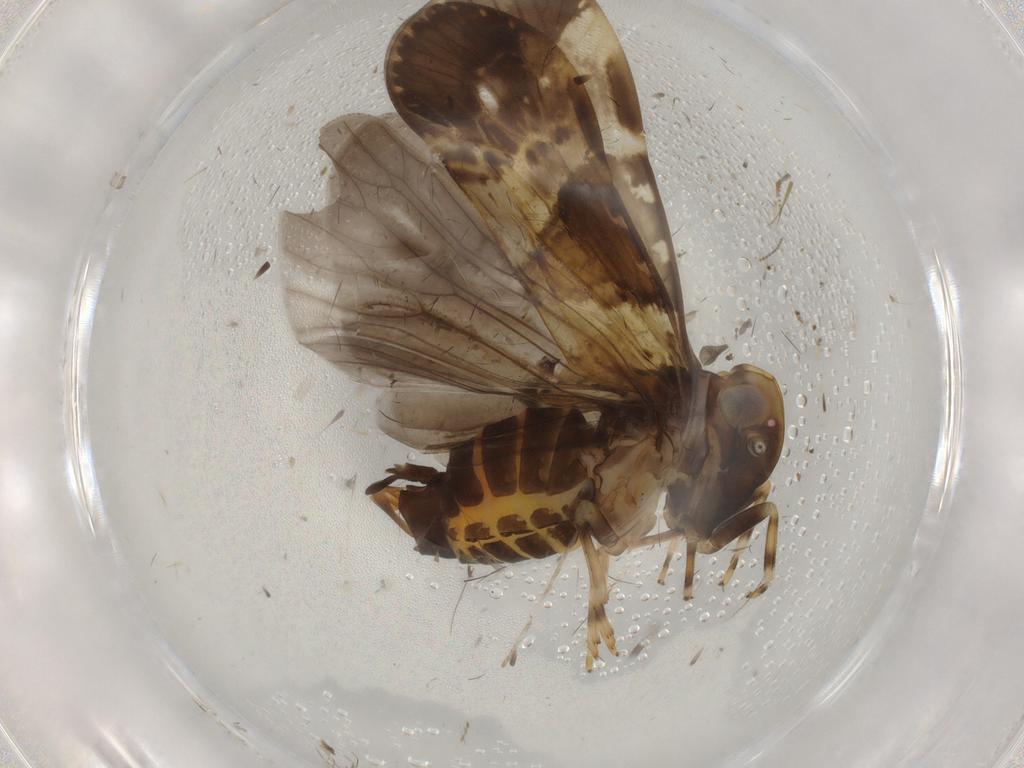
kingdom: Animalia
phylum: Arthropoda
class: Insecta
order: Hemiptera
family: Cixiidae
